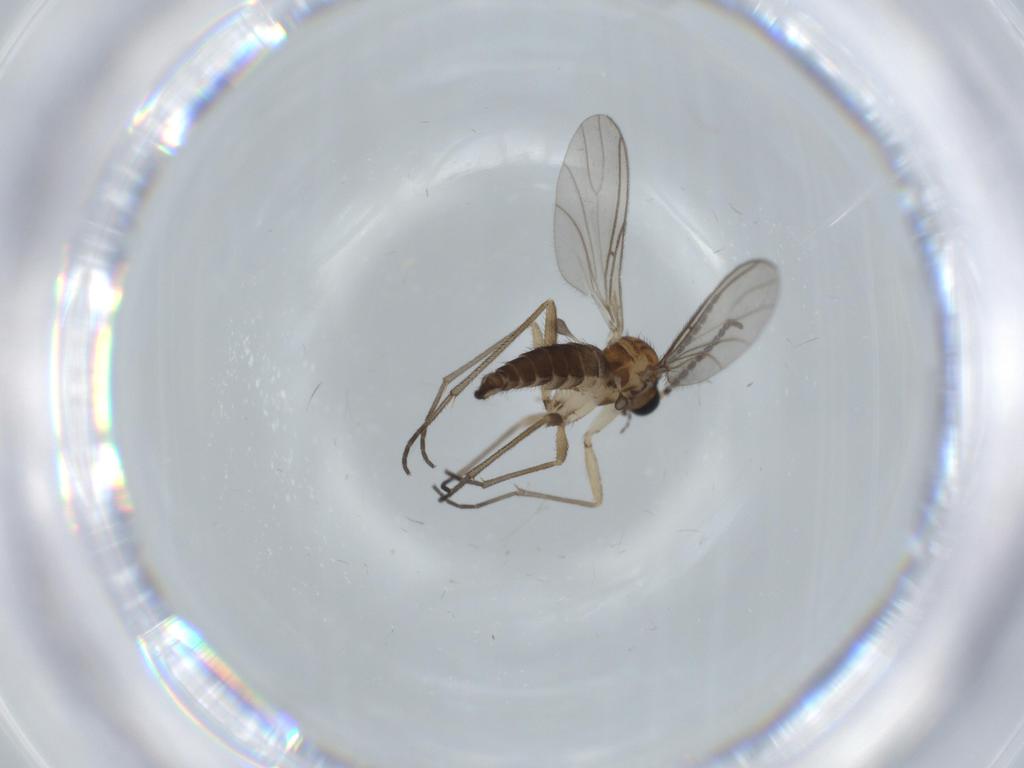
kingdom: Animalia
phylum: Arthropoda
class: Insecta
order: Diptera
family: Sciaridae
